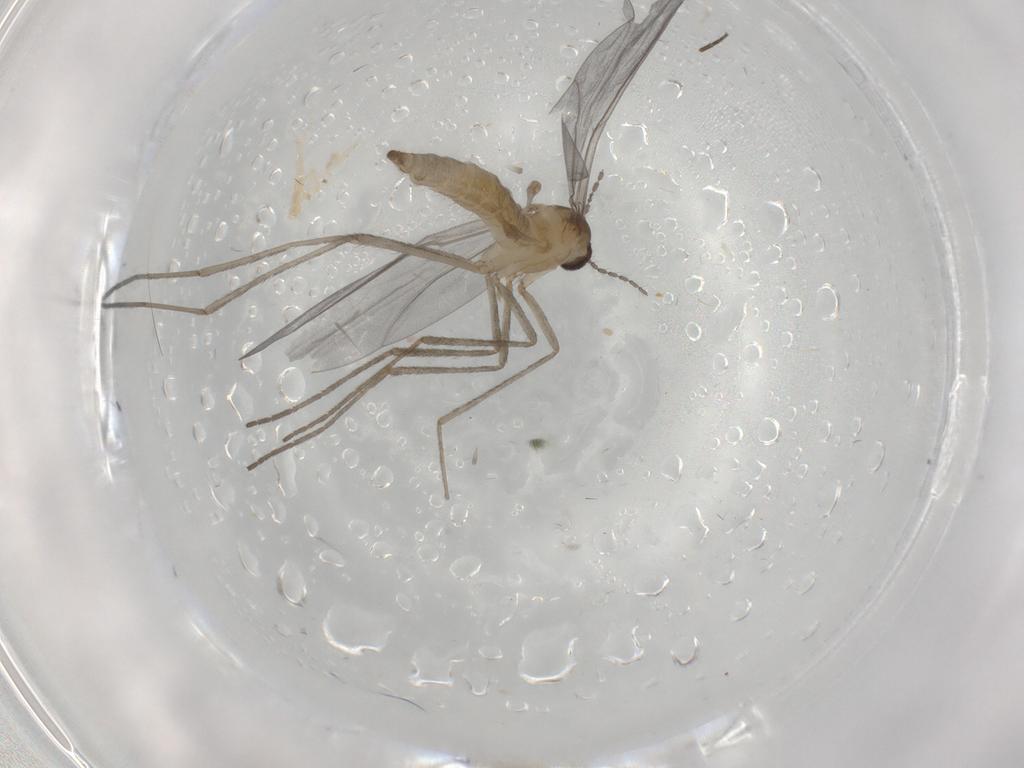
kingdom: Animalia
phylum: Arthropoda
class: Insecta
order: Diptera
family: Cecidomyiidae
